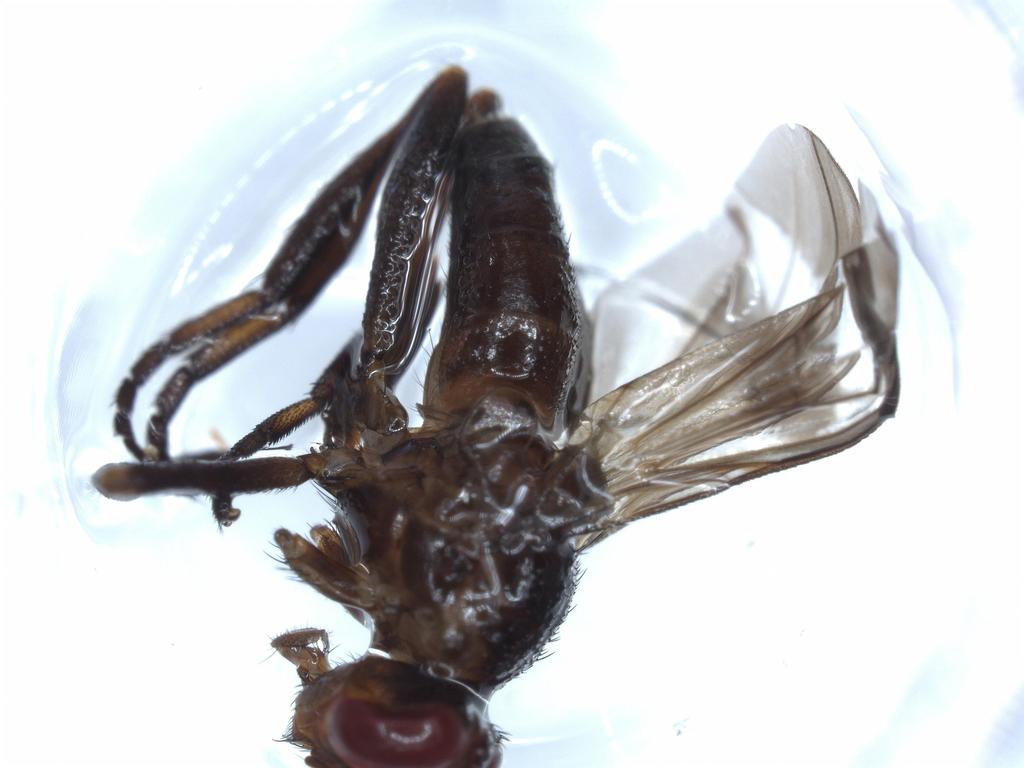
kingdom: Animalia
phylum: Arthropoda
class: Insecta
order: Diptera
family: Calliphoridae
